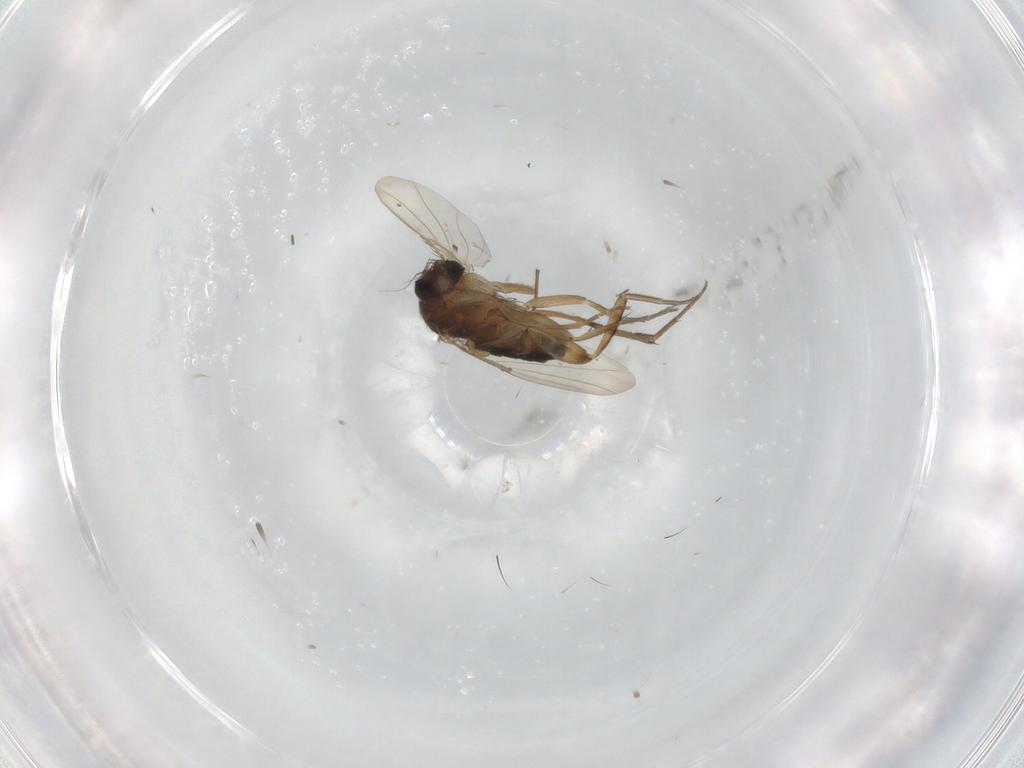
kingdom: Animalia
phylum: Arthropoda
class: Insecta
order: Diptera
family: Phoridae
